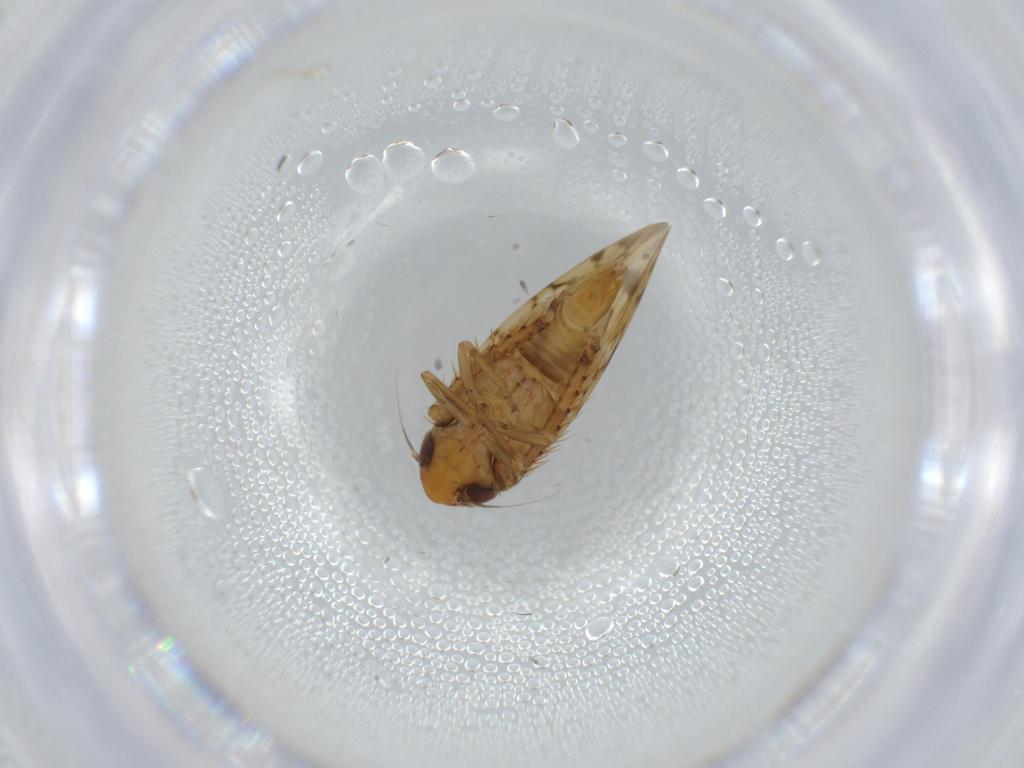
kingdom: Animalia
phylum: Arthropoda
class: Insecta
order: Hemiptera
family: Cicadellidae
